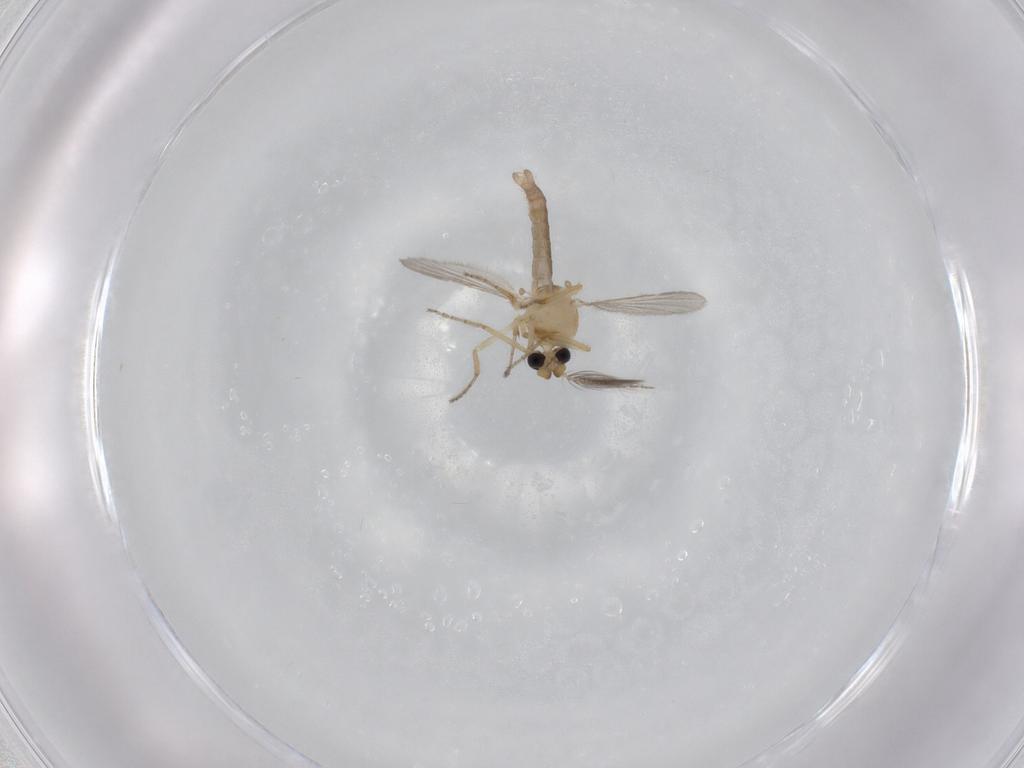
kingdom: Animalia
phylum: Arthropoda
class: Insecta
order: Diptera
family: Ceratopogonidae
